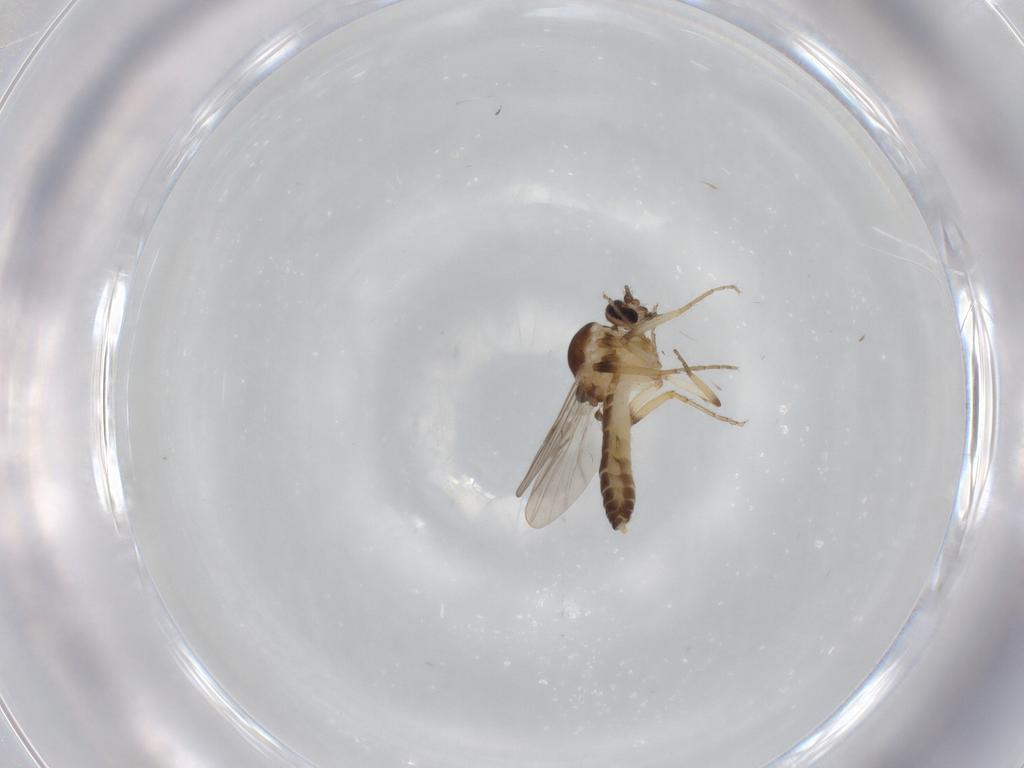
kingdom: Animalia
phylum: Arthropoda
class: Insecta
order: Diptera
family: Ceratopogonidae
